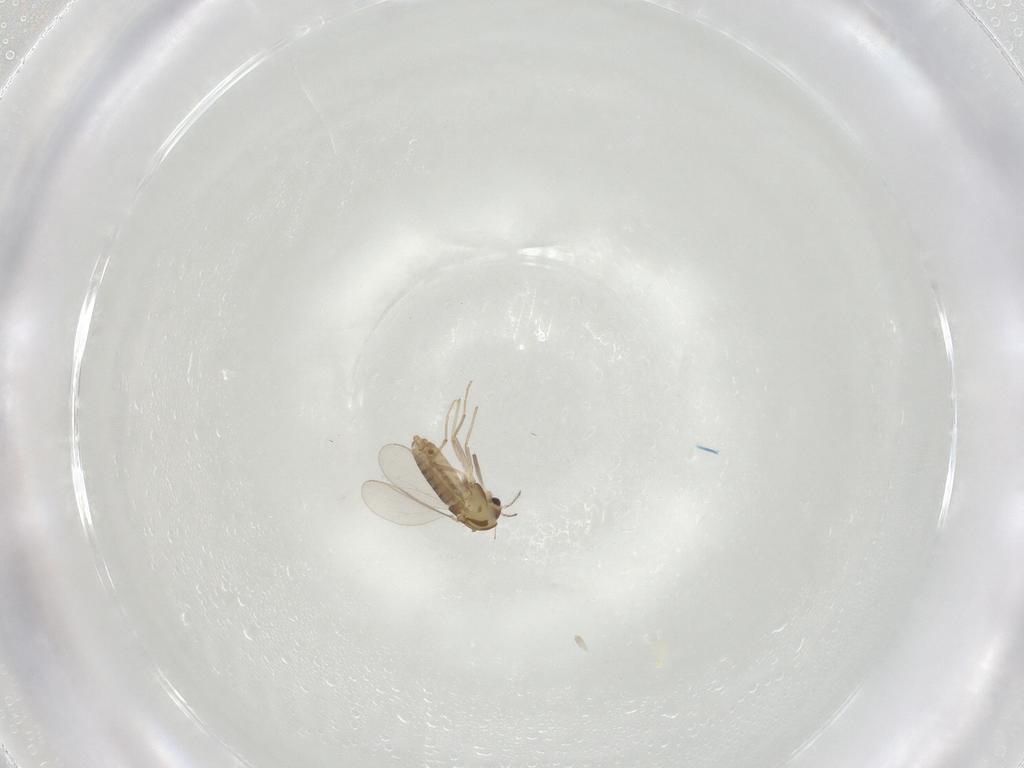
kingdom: Animalia
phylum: Arthropoda
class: Insecta
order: Diptera
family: Chironomidae
